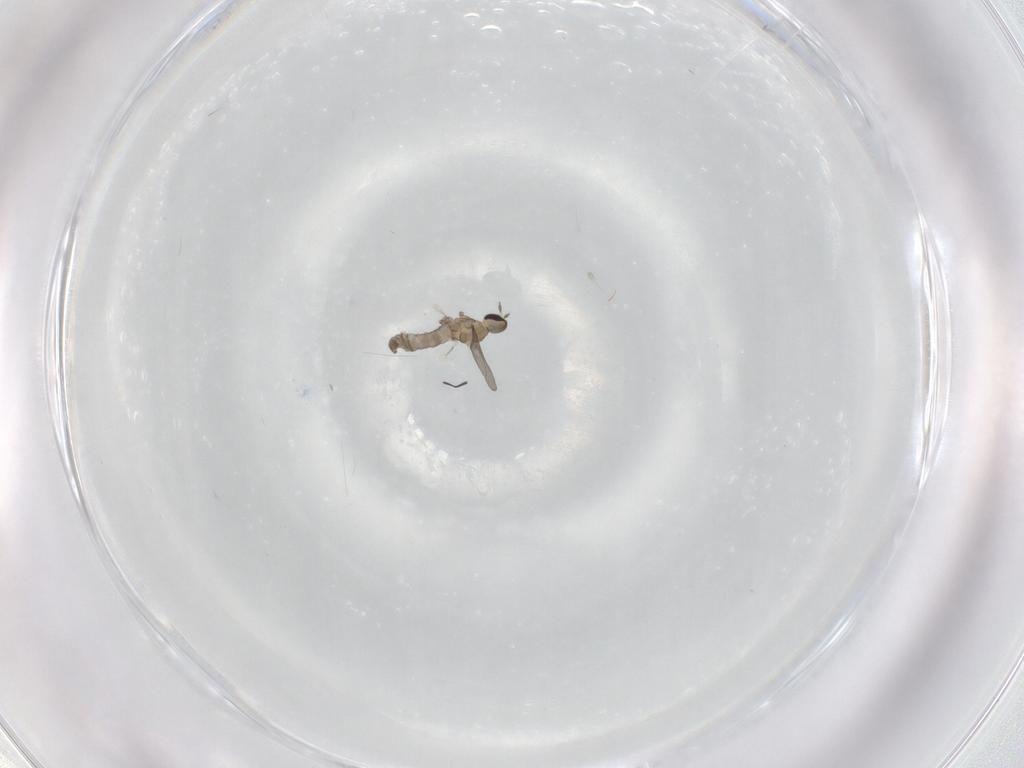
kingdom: Animalia
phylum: Arthropoda
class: Insecta
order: Diptera
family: Cecidomyiidae
